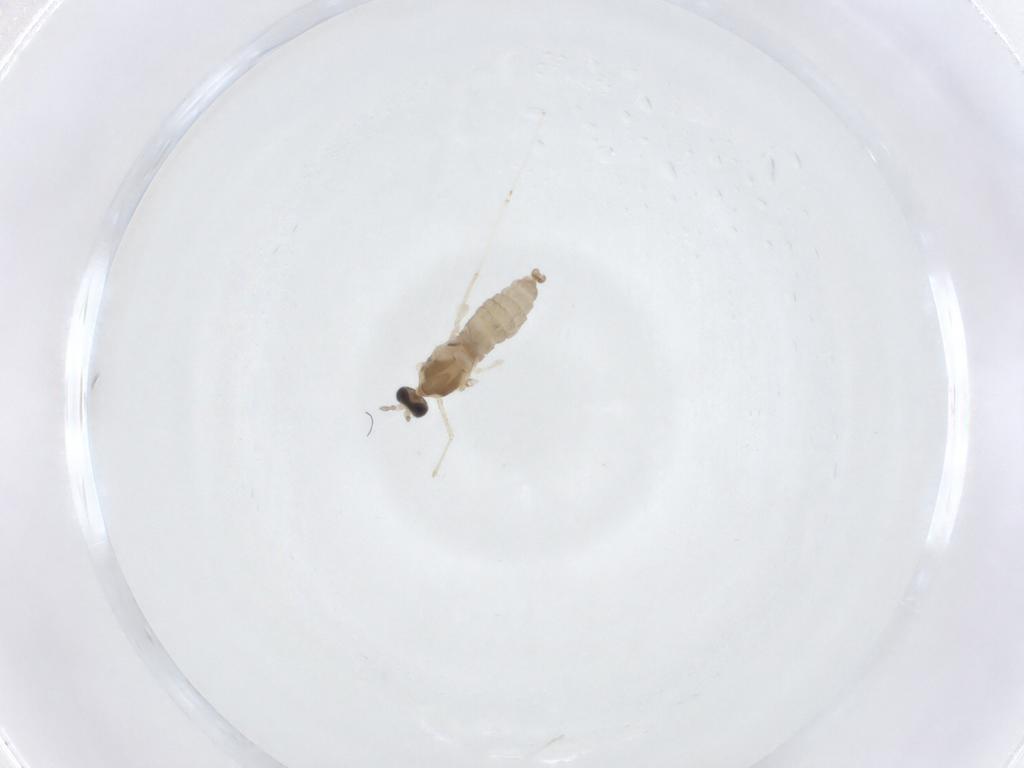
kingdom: Animalia
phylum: Arthropoda
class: Insecta
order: Diptera
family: Cecidomyiidae
